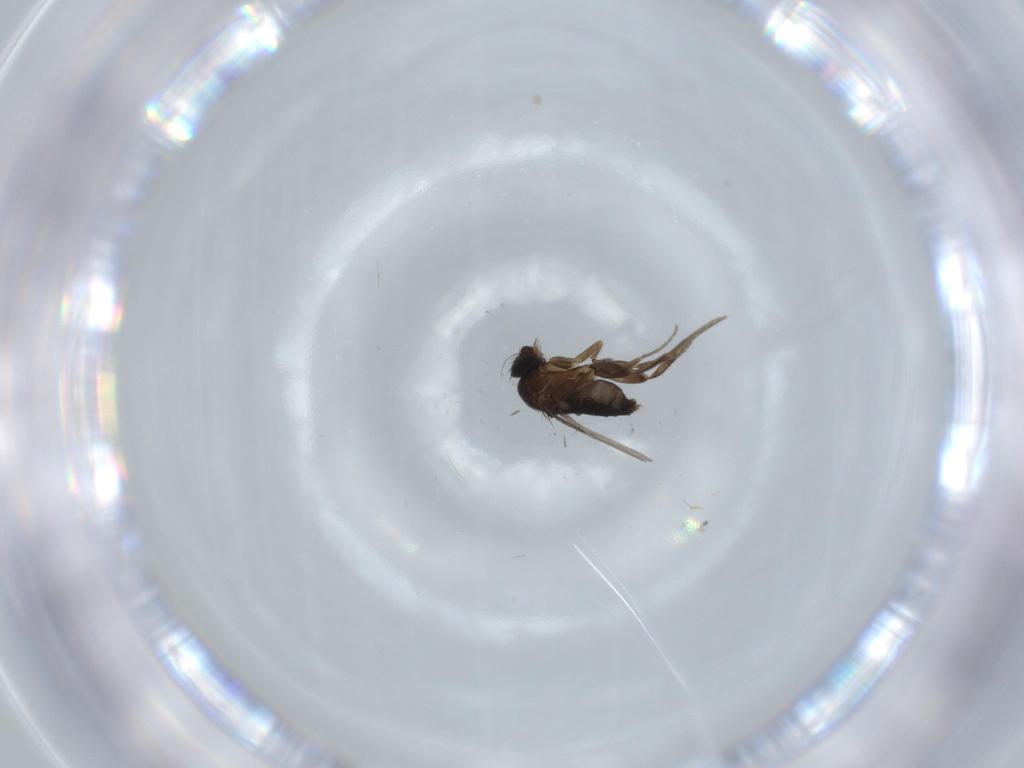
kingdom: Animalia
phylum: Arthropoda
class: Insecta
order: Diptera
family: Phoridae
